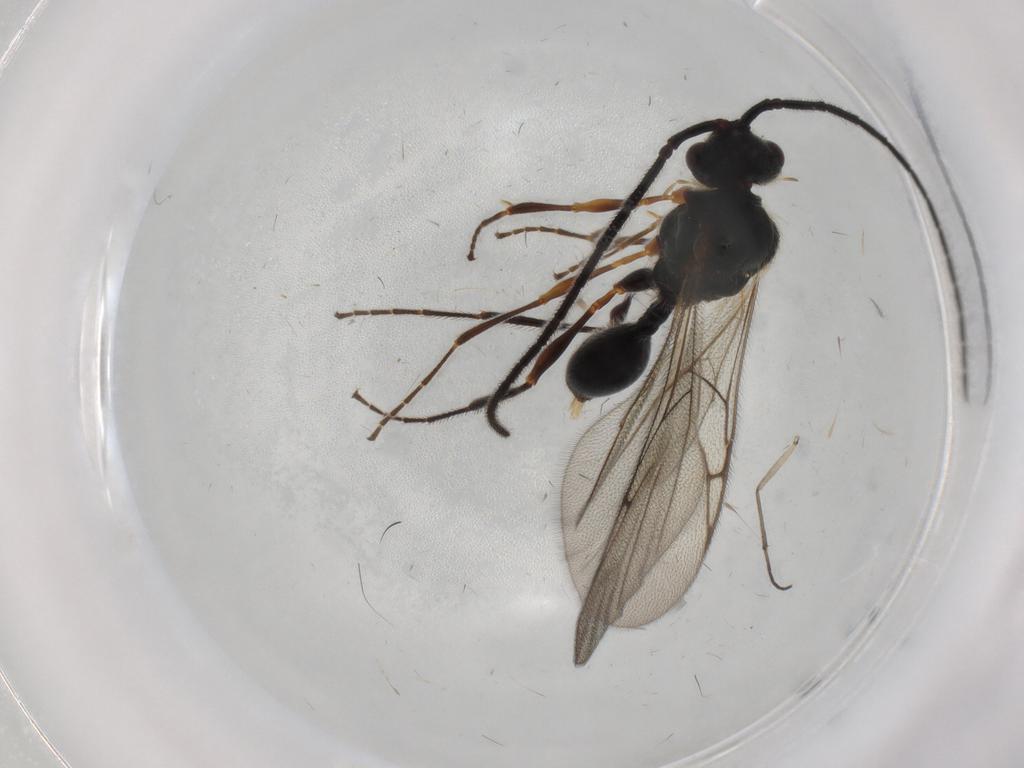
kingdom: Animalia
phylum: Arthropoda
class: Insecta
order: Hymenoptera
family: Diapriidae
